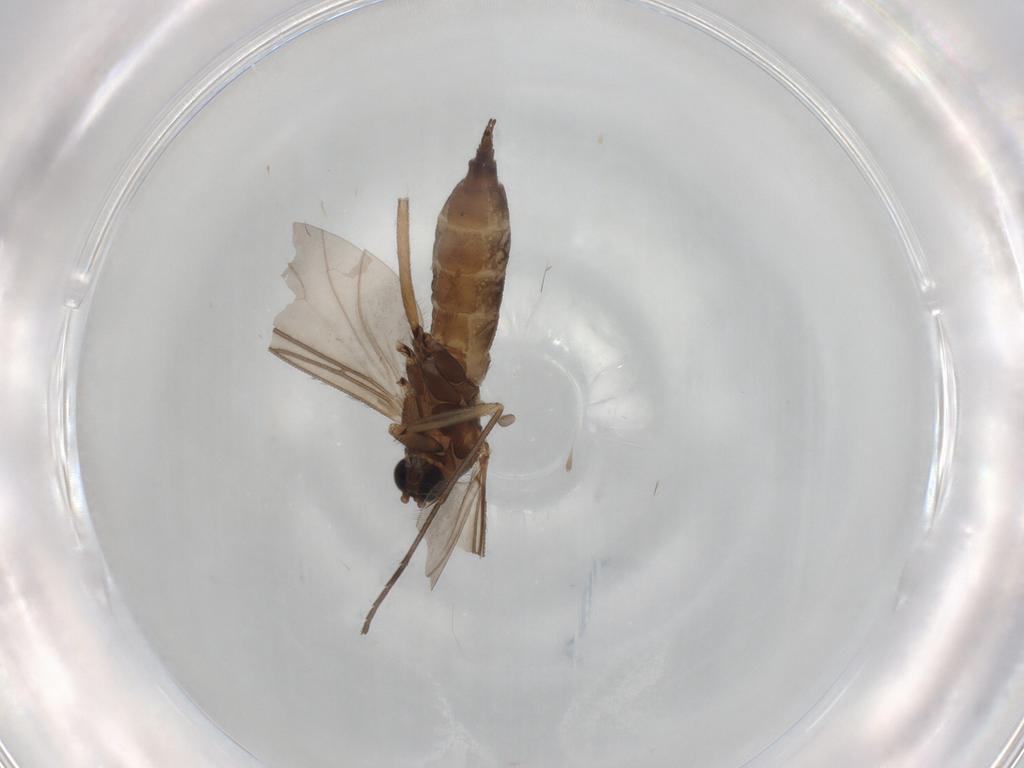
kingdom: Animalia
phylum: Arthropoda
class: Insecta
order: Diptera
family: Sciaridae
